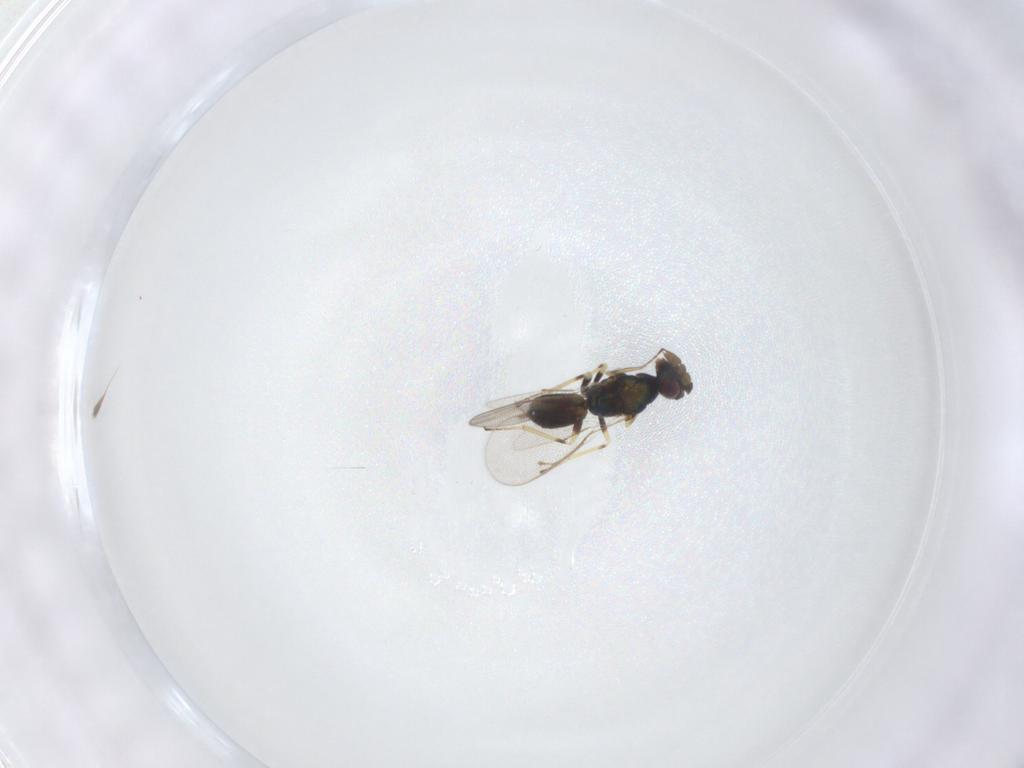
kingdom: Animalia
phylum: Arthropoda
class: Insecta
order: Hymenoptera
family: Eulophidae
